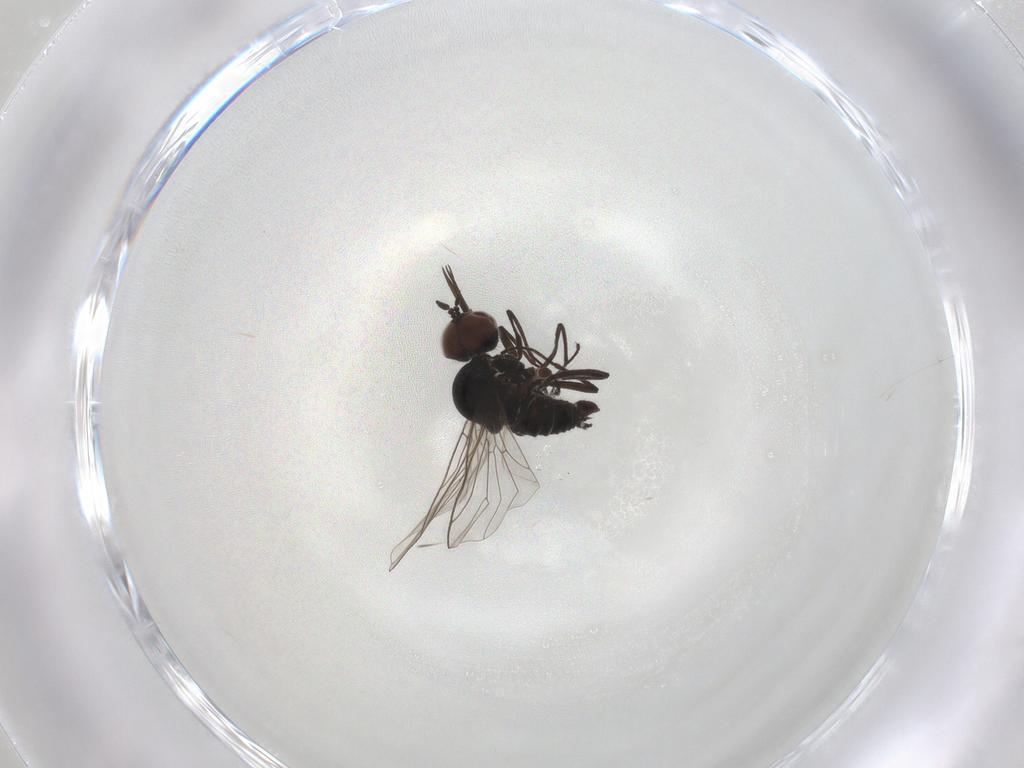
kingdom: Animalia
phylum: Arthropoda
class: Insecta
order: Diptera
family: Bombyliidae
